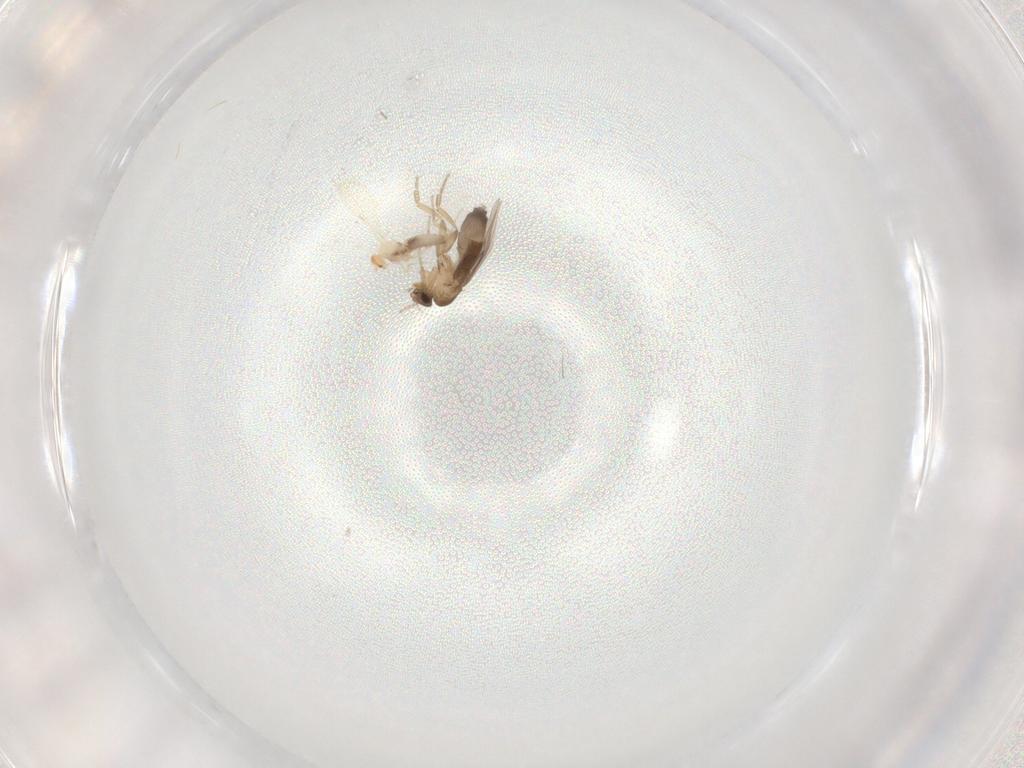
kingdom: Animalia
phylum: Arthropoda
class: Insecta
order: Diptera
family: Phoridae
